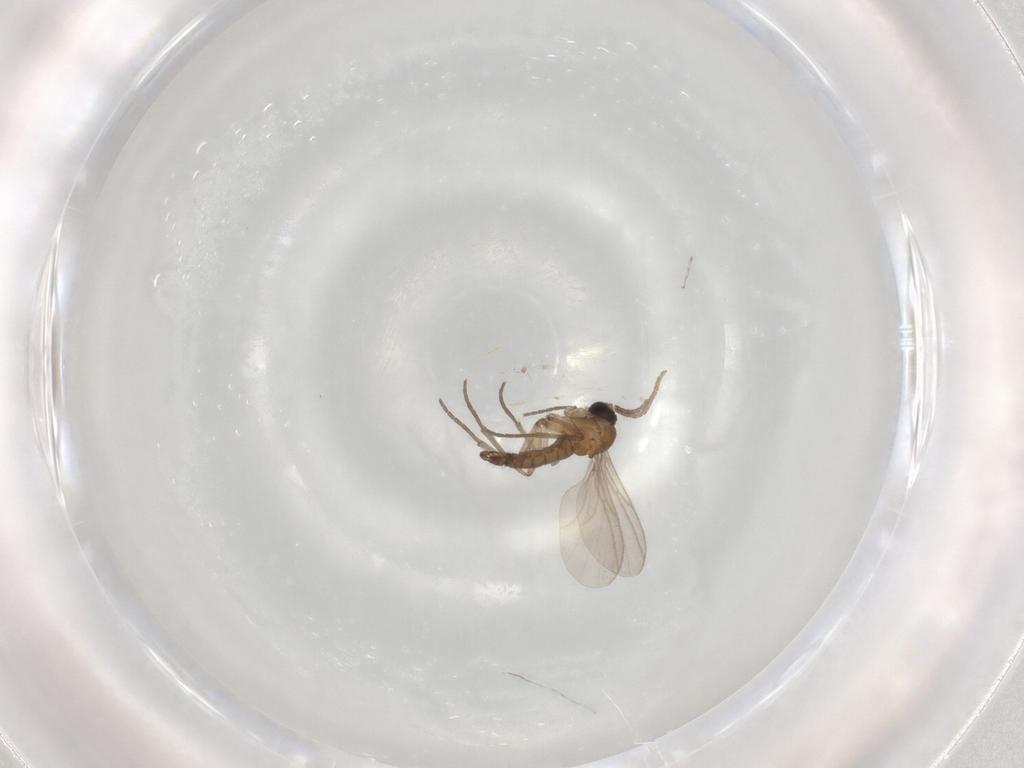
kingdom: Animalia
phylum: Arthropoda
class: Insecta
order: Diptera
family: Sciaridae
